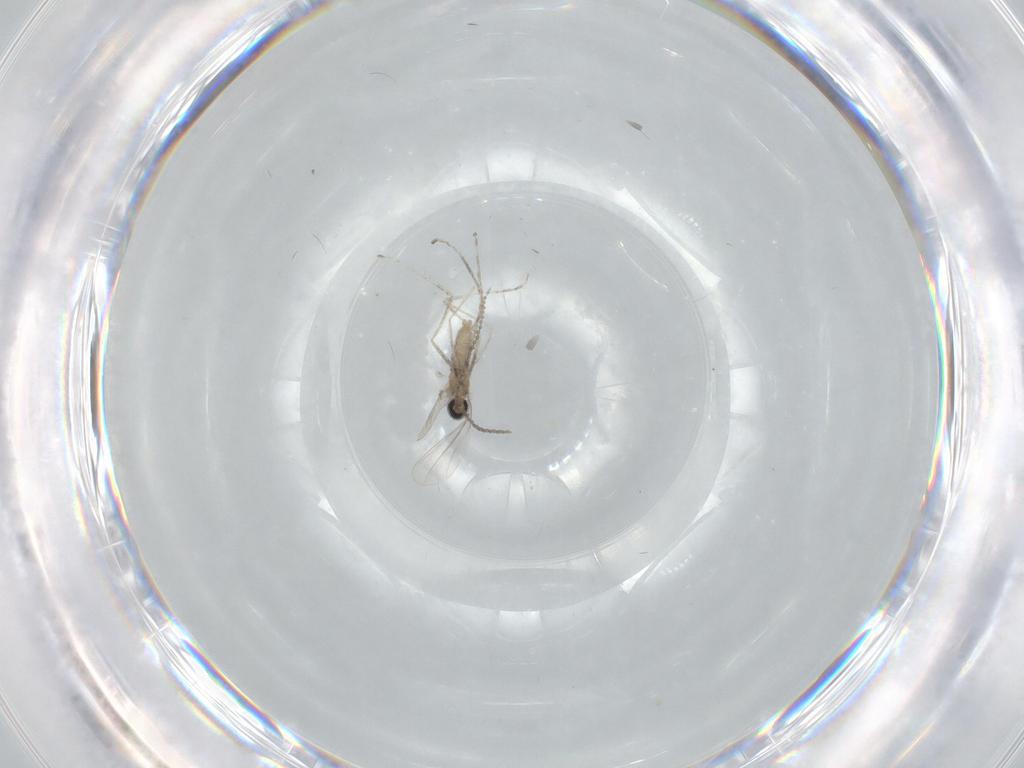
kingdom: Animalia
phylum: Arthropoda
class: Insecta
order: Diptera
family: Cecidomyiidae
